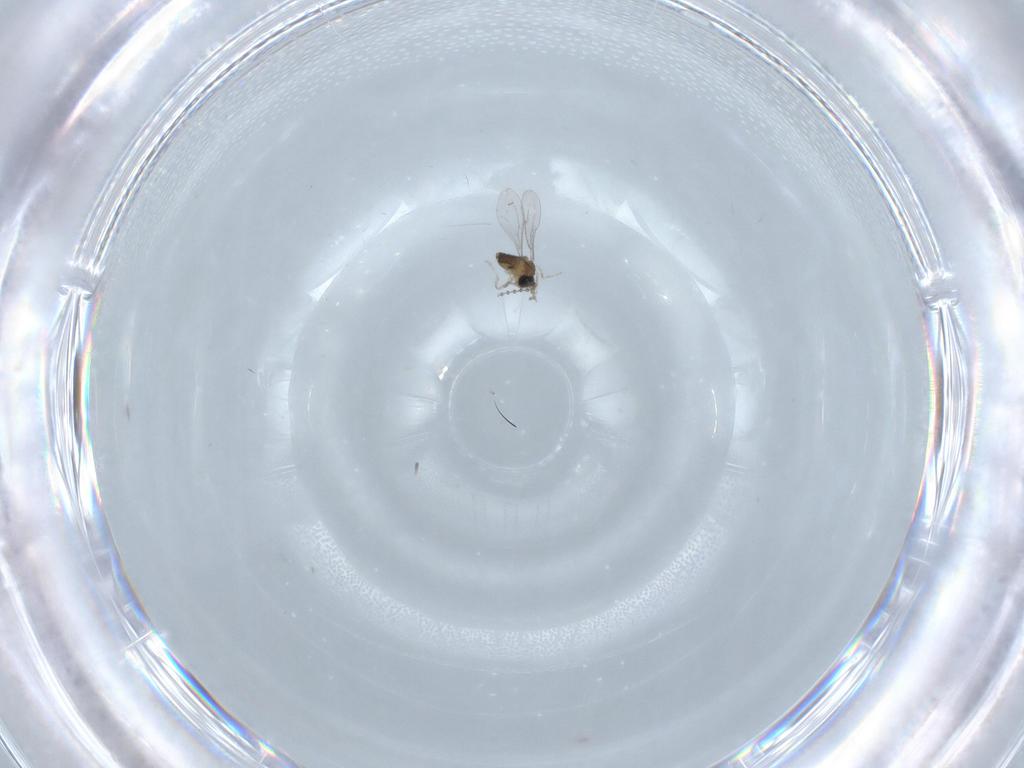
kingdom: Animalia
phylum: Arthropoda
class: Insecta
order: Diptera
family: Cecidomyiidae
